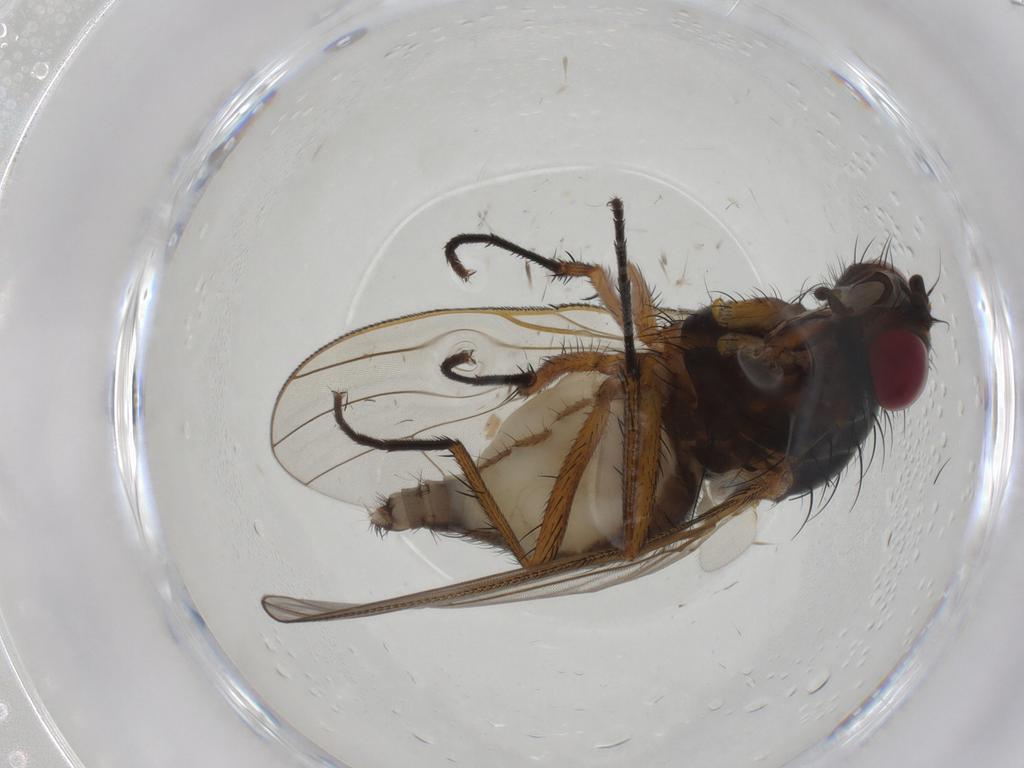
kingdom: Animalia
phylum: Arthropoda
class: Insecta
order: Diptera
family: Anthomyiidae
